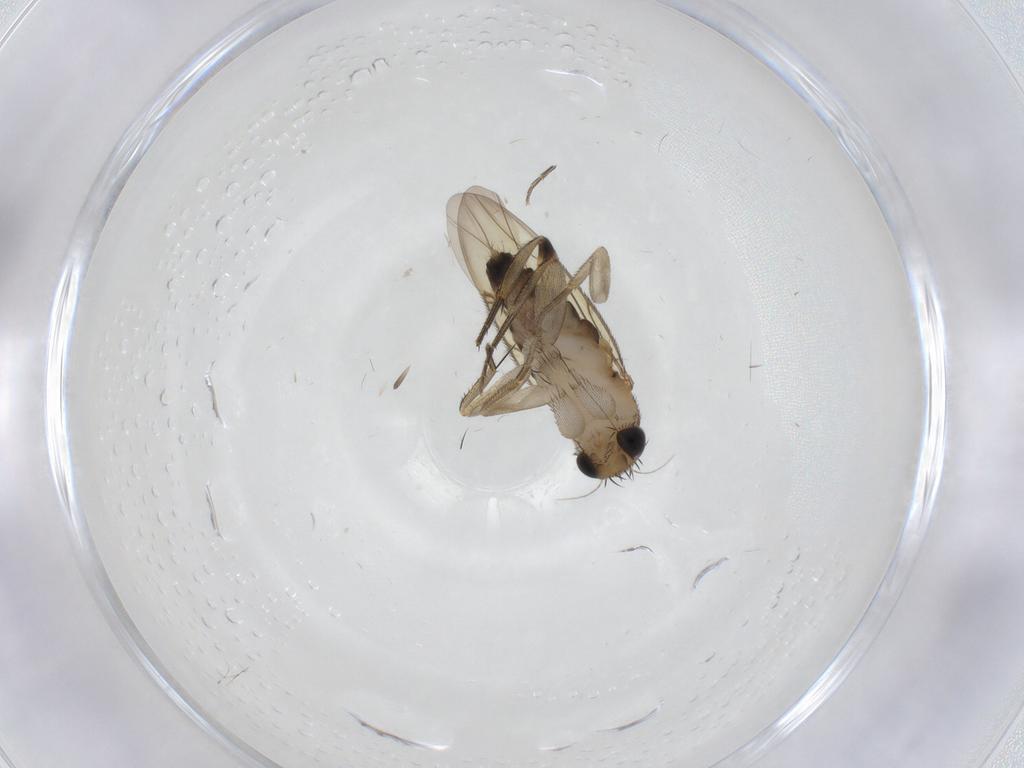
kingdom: Animalia
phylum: Arthropoda
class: Insecta
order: Diptera
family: Phoridae
